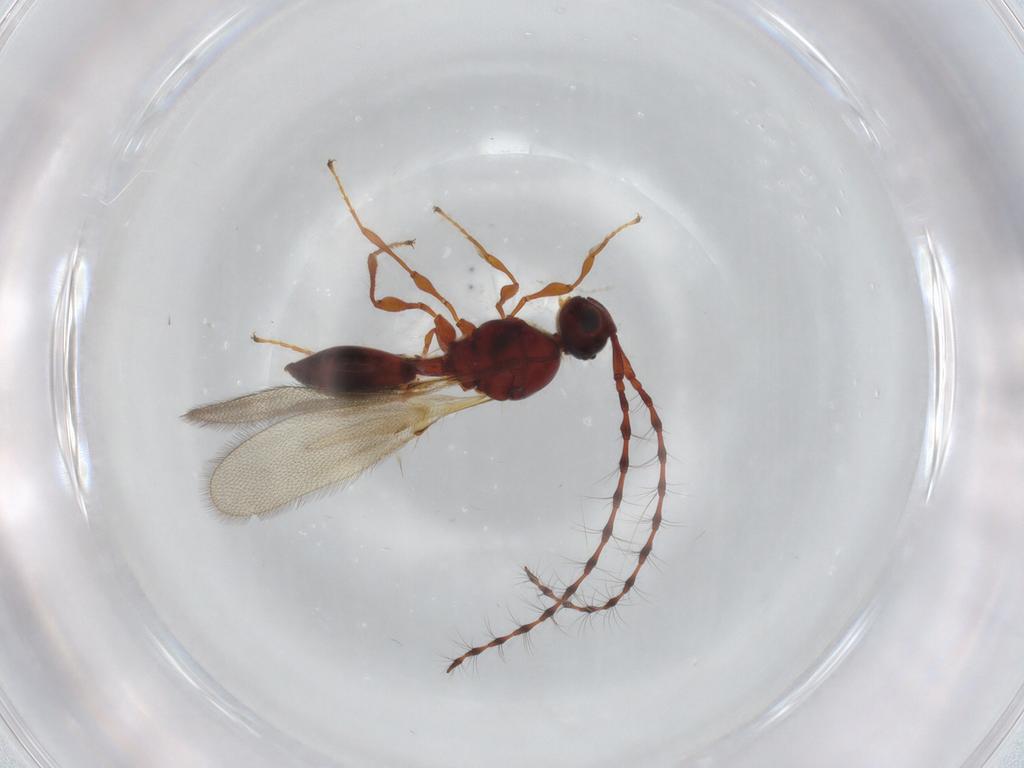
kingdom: Animalia
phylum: Arthropoda
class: Insecta
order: Hymenoptera
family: Diapriidae
